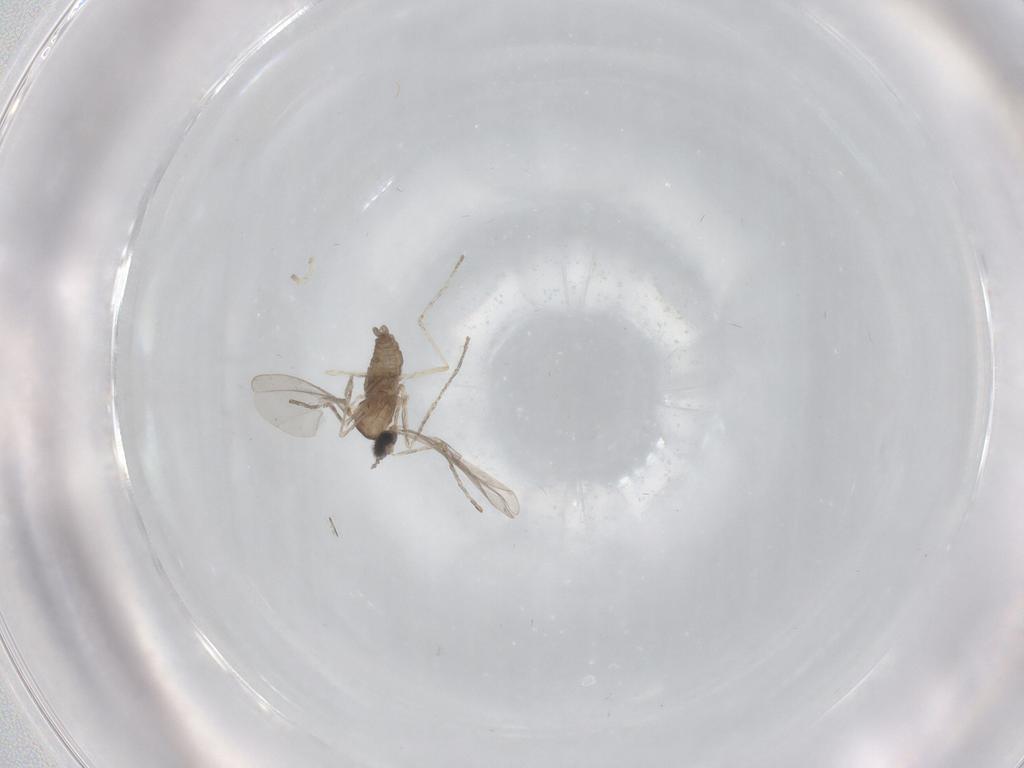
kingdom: Animalia
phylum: Arthropoda
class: Insecta
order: Diptera
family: Cecidomyiidae
